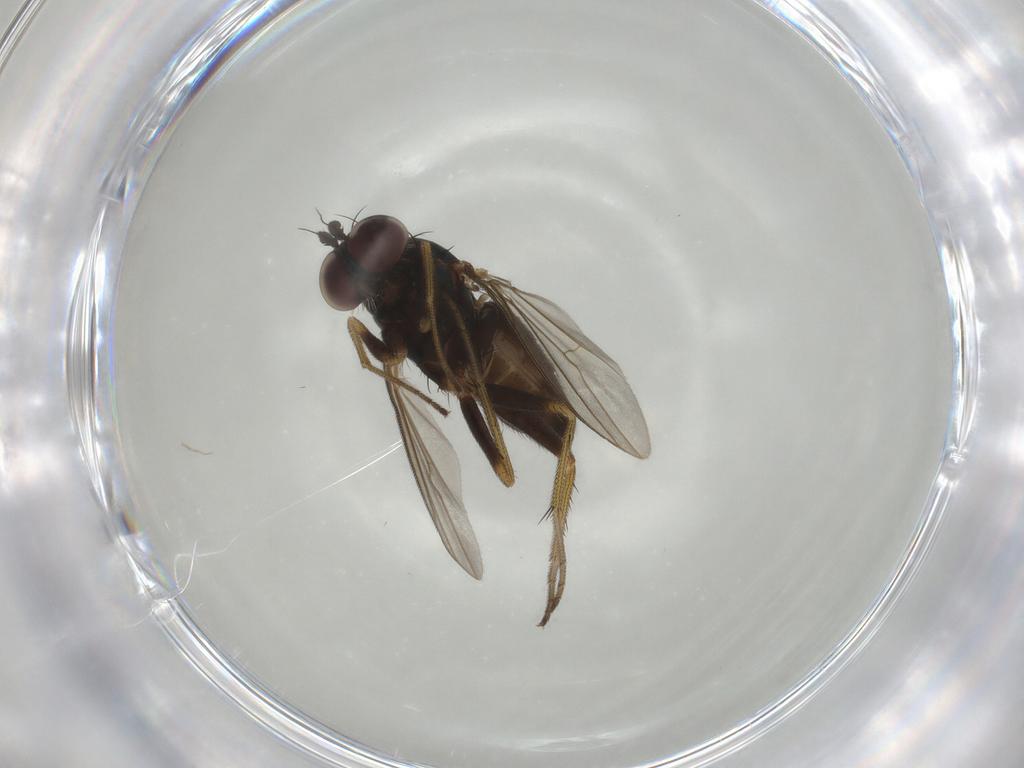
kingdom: Animalia
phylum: Arthropoda
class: Insecta
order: Diptera
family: Dolichopodidae
